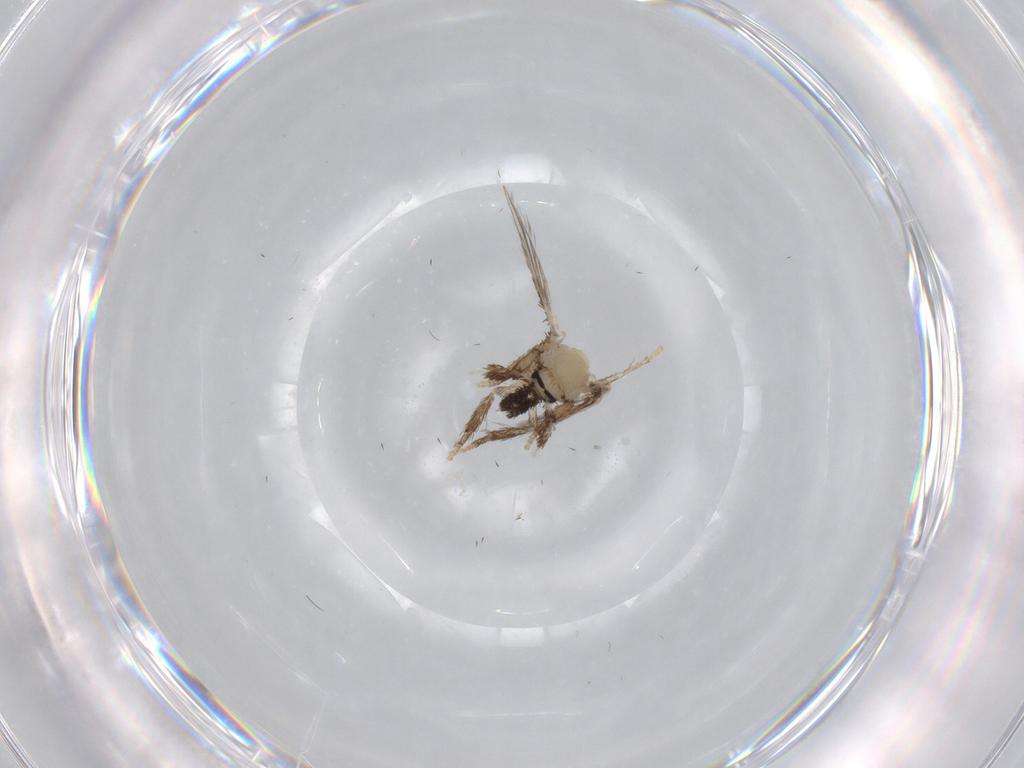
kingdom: Animalia
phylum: Arthropoda
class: Insecta
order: Diptera
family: Psychodidae
